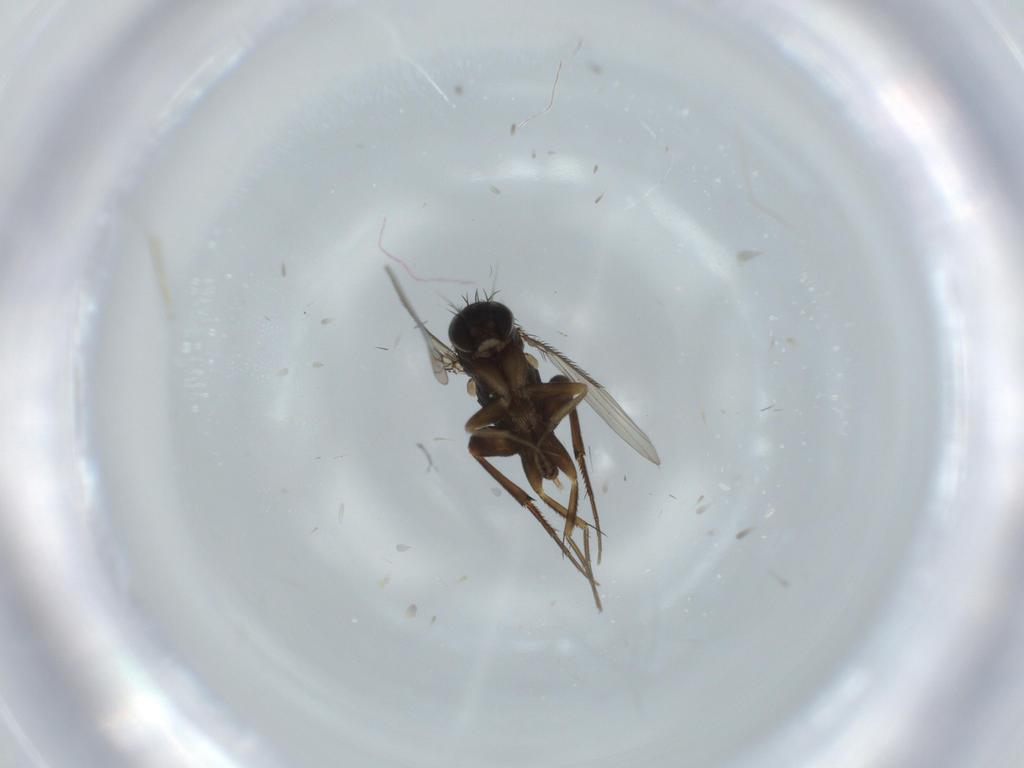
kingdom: Animalia
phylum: Arthropoda
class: Insecta
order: Diptera
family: Phoridae
